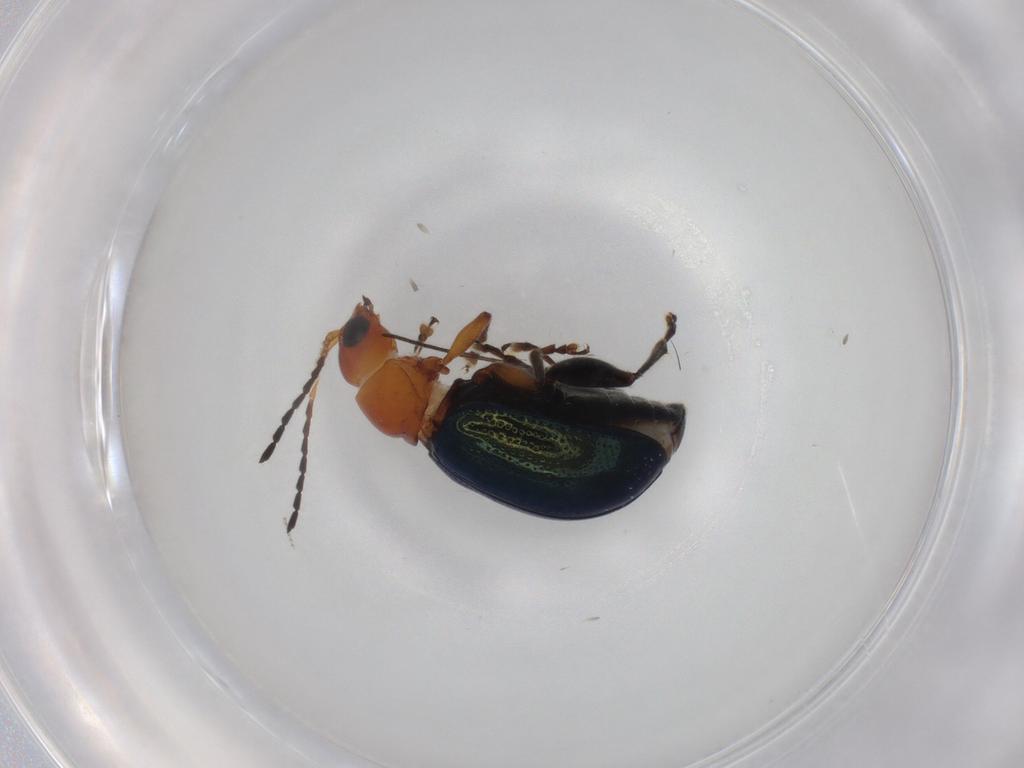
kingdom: Animalia
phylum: Arthropoda
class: Insecta
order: Coleoptera
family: Chrysomelidae
